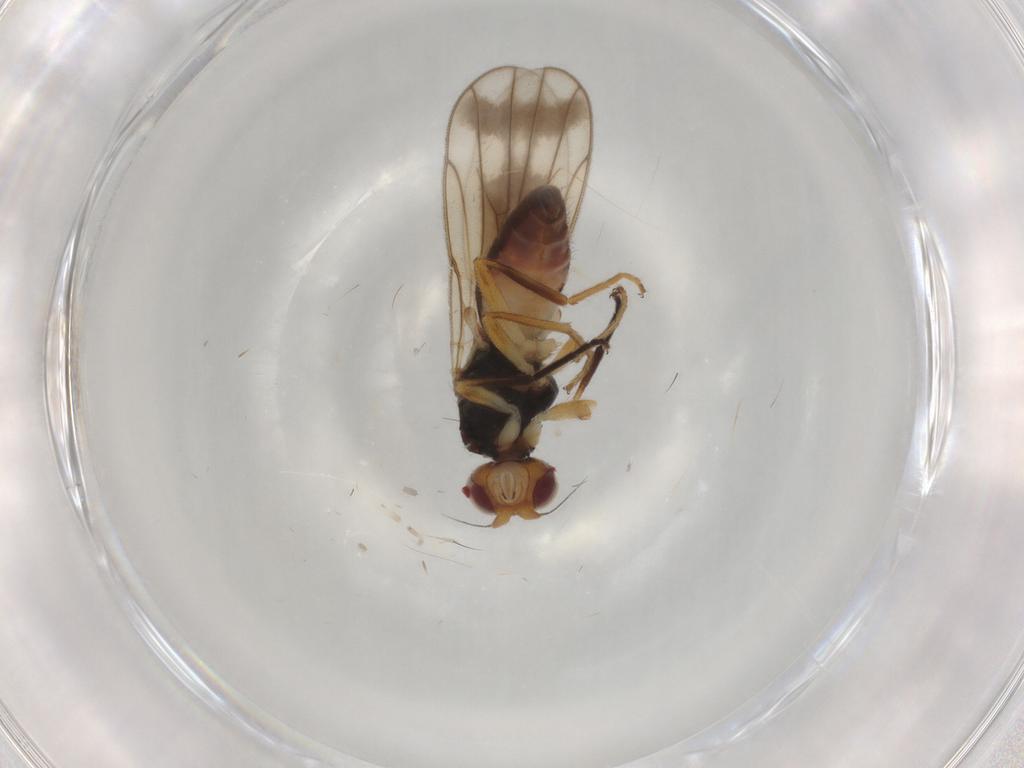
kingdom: Animalia
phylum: Arthropoda
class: Insecta
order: Diptera
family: Chloropidae
